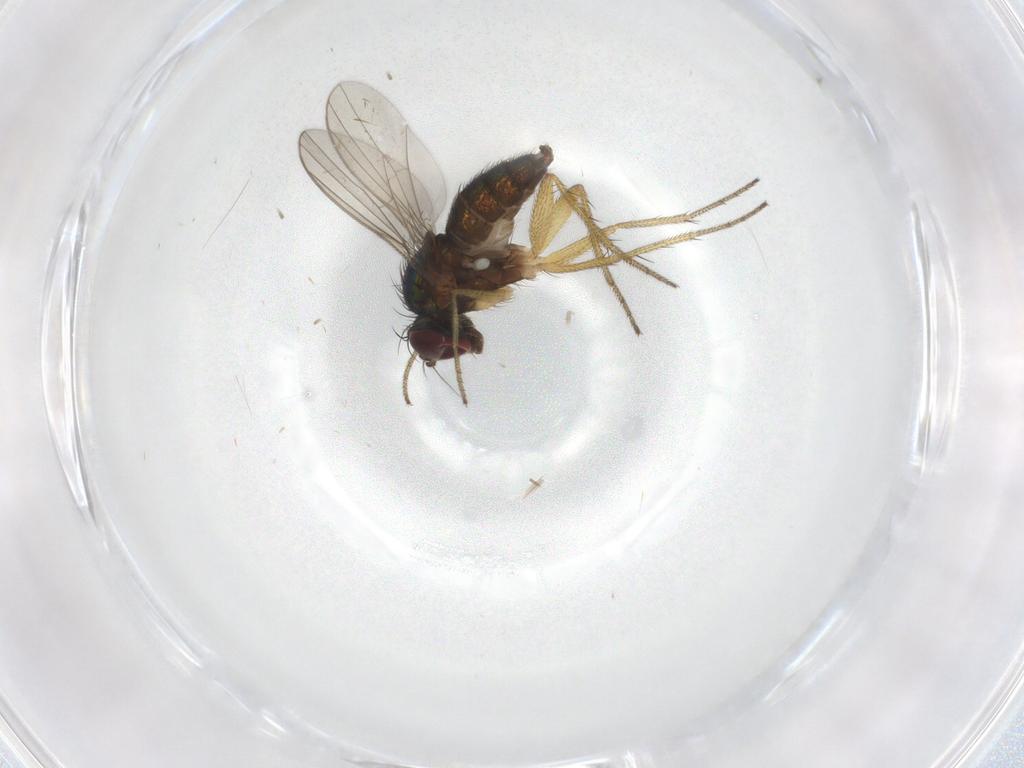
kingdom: Animalia
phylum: Arthropoda
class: Insecta
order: Diptera
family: Dolichopodidae
